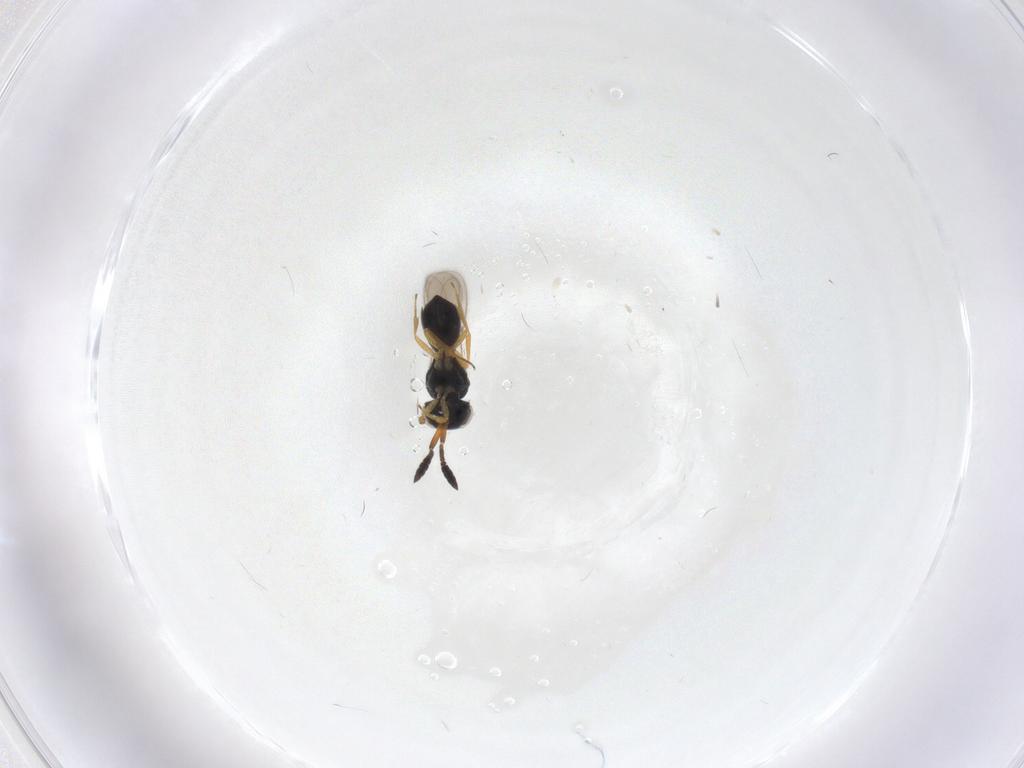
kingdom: Animalia
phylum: Arthropoda
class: Insecta
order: Hymenoptera
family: Scelionidae
